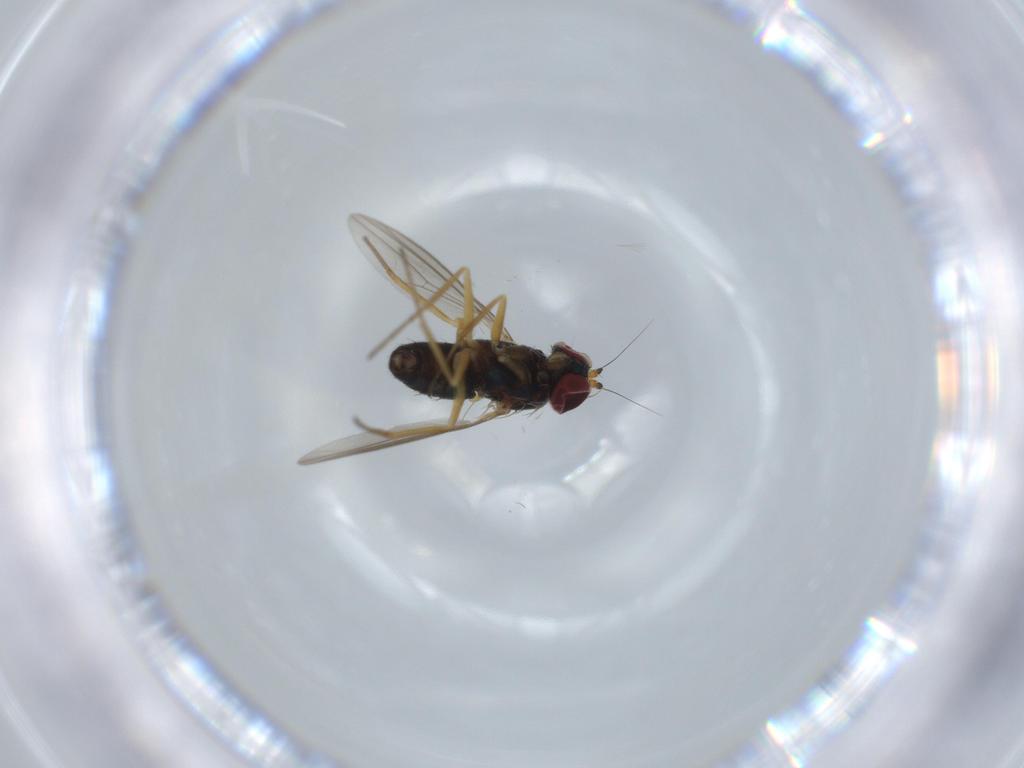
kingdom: Animalia
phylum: Arthropoda
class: Insecta
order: Diptera
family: Dolichopodidae
